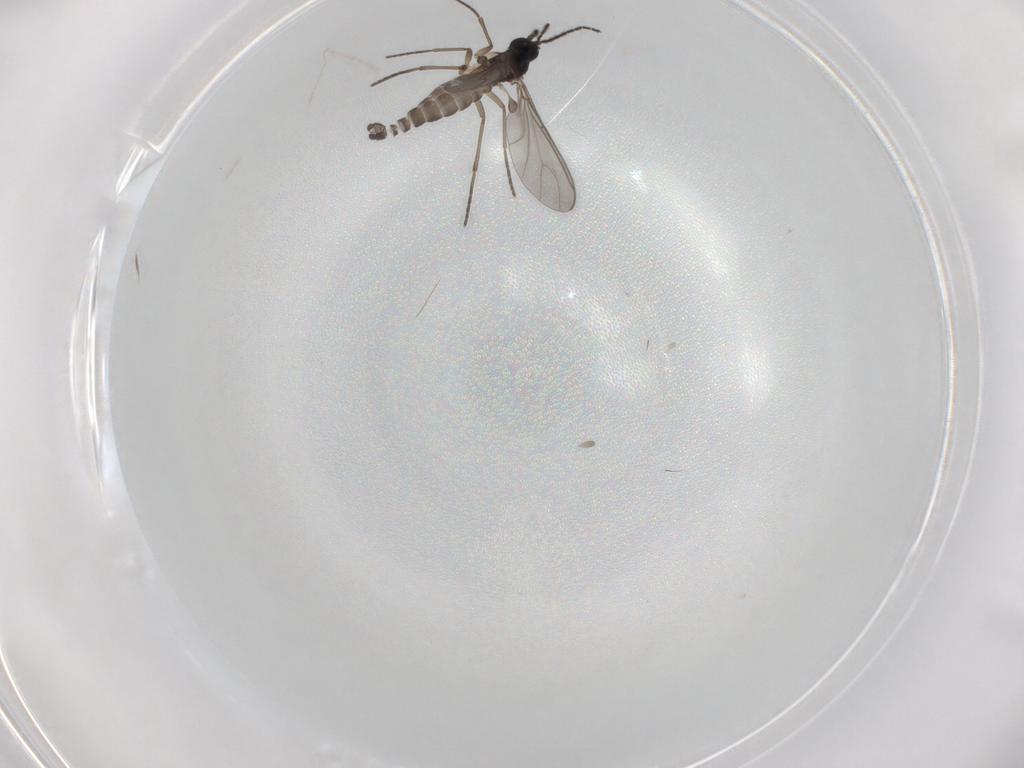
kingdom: Animalia
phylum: Arthropoda
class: Insecta
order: Diptera
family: Sciaridae
